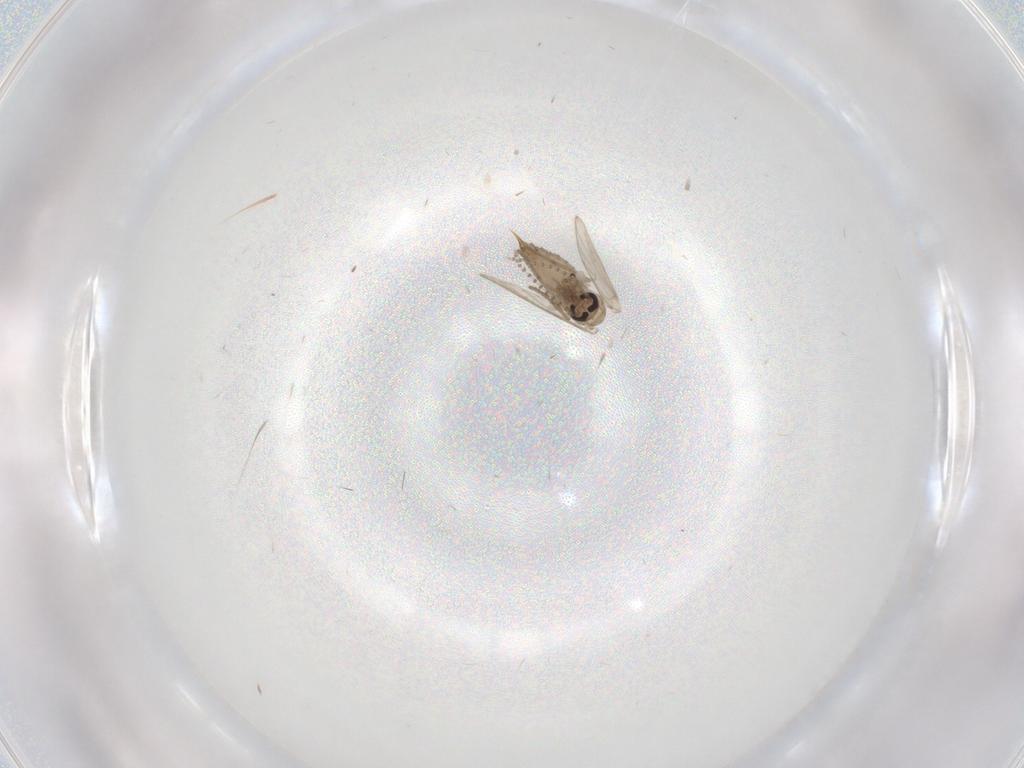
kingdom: Animalia
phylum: Arthropoda
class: Insecta
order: Diptera
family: Psychodidae
